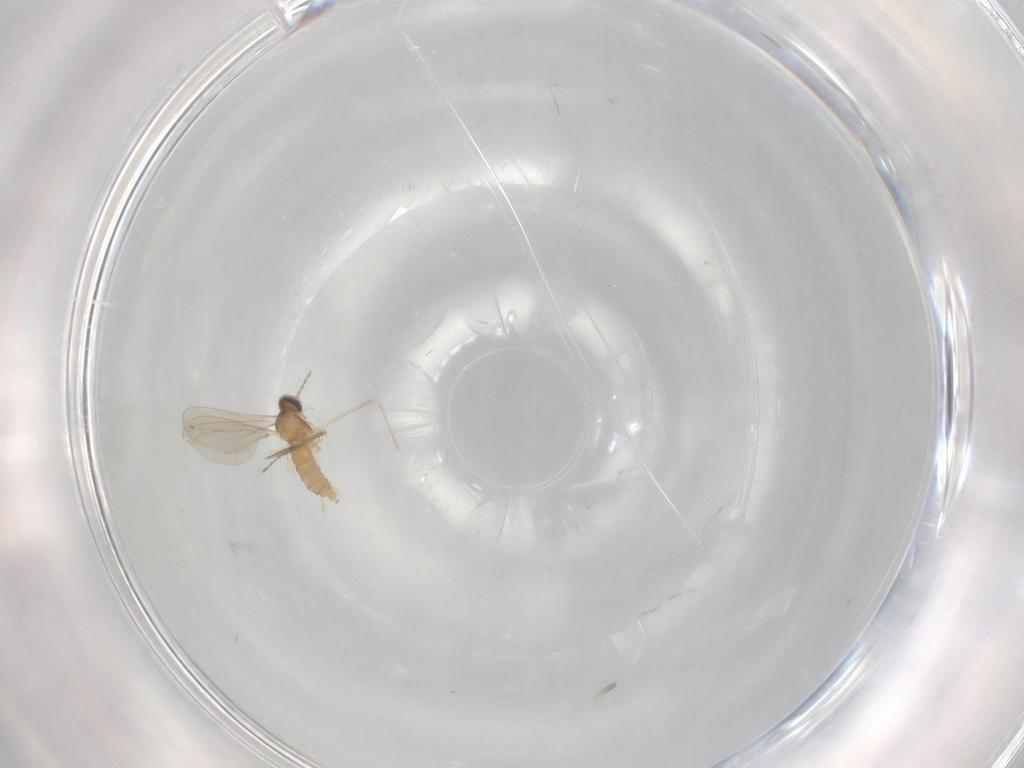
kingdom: Animalia
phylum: Arthropoda
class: Insecta
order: Diptera
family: Cecidomyiidae
